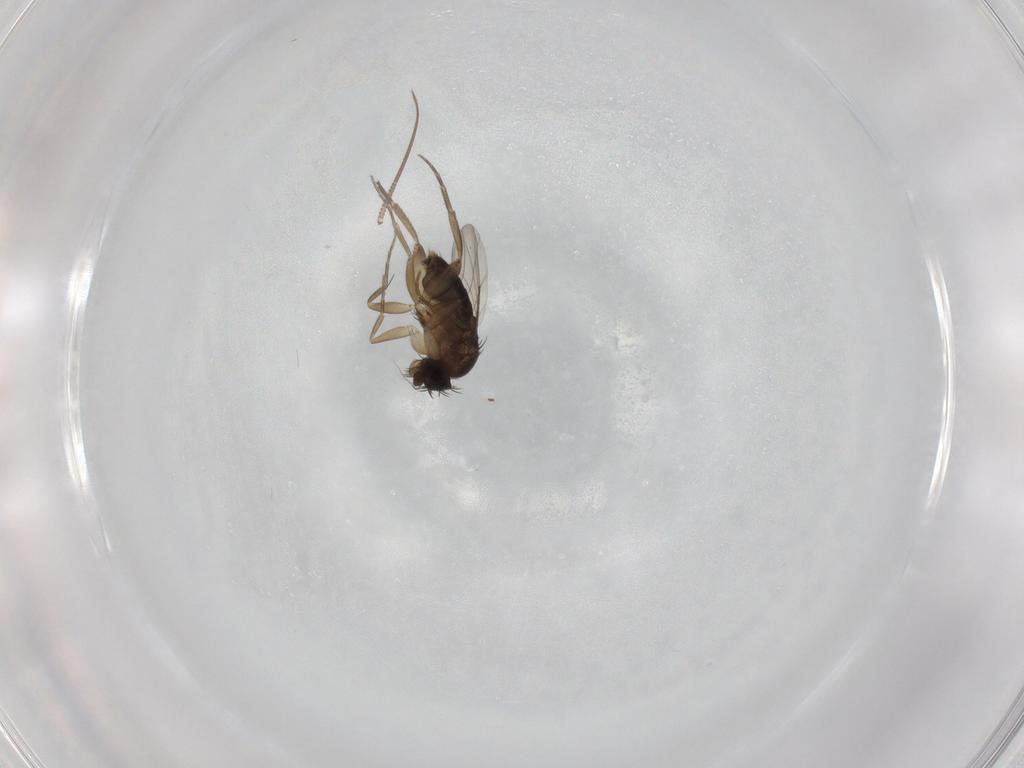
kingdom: Animalia
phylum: Arthropoda
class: Insecta
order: Diptera
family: Phoridae
